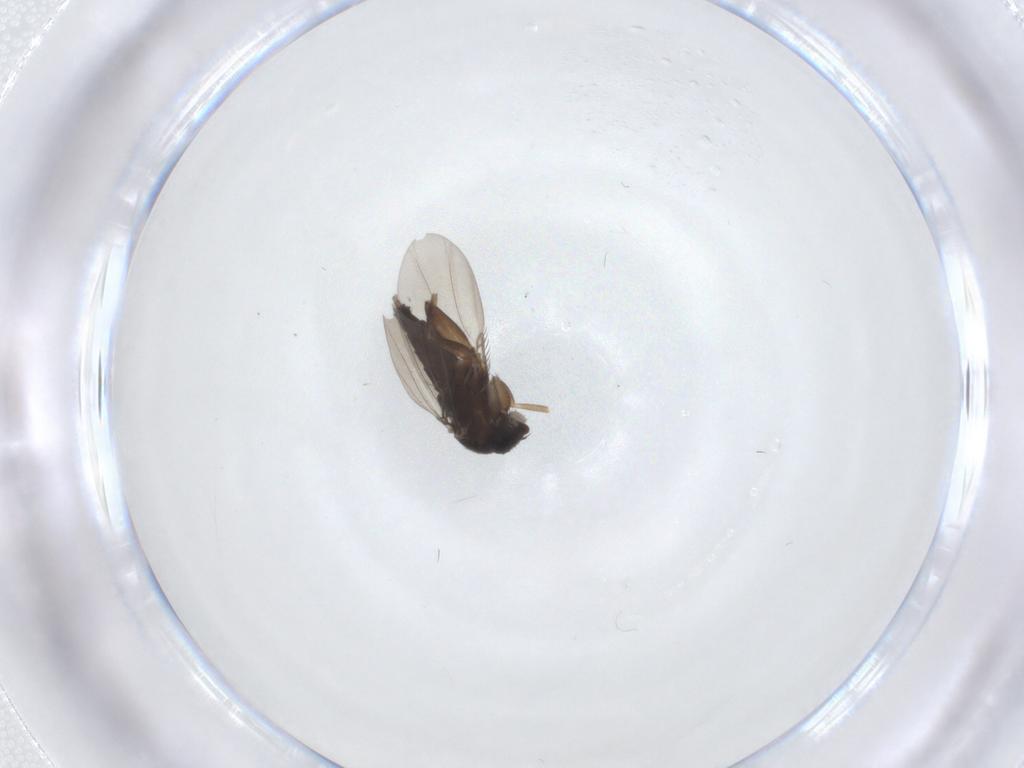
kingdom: Animalia
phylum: Arthropoda
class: Insecta
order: Diptera
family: Phoridae
